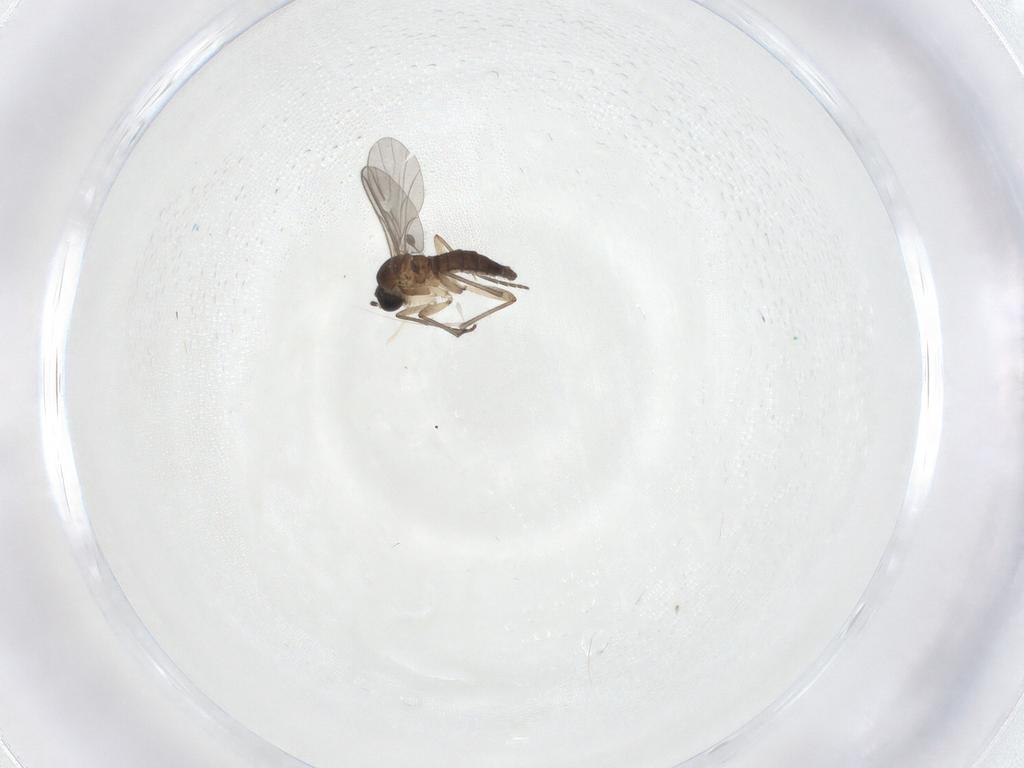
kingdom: Animalia
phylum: Arthropoda
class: Insecta
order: Diptera
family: Sciaridae
